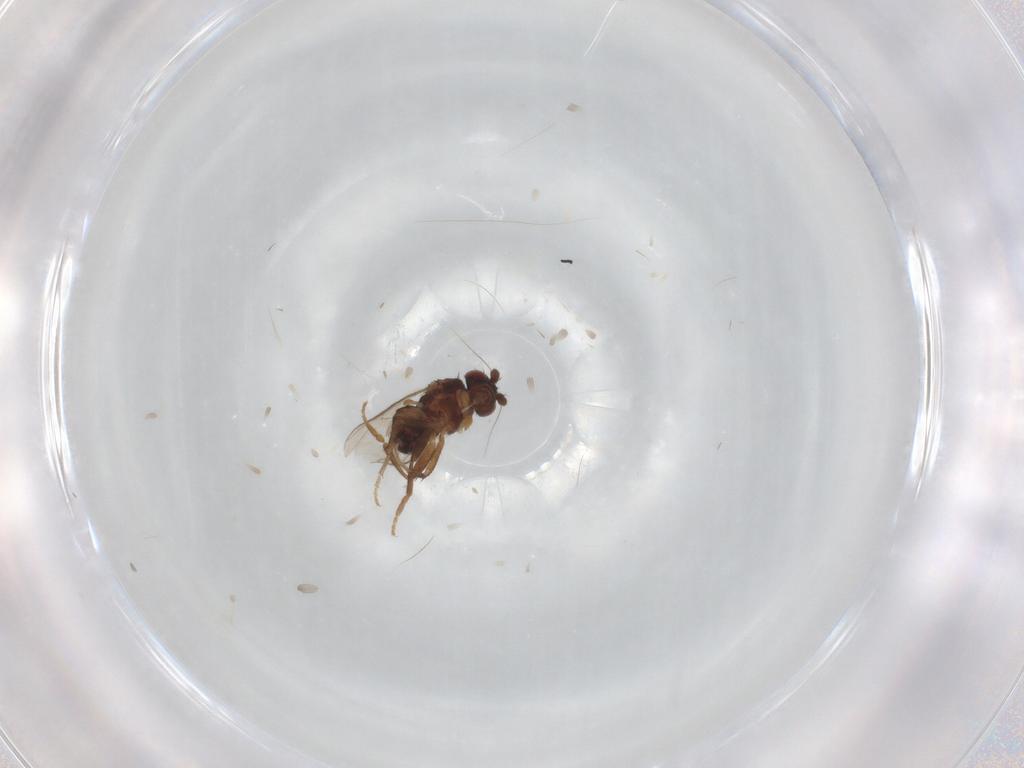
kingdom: Animalia
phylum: Arthropoda
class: Insecta
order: Diptera
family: Sphaeroceridae
